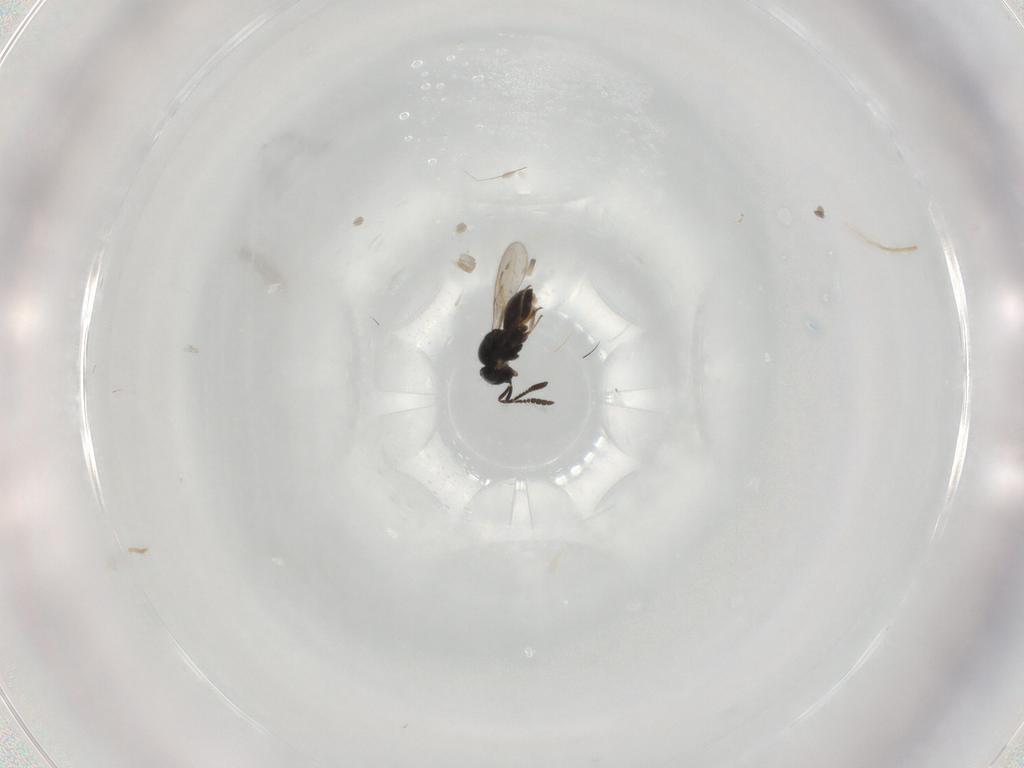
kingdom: Animalia
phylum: Arthropoda
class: Insecta
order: Hymenoptera
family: Scelionidae
